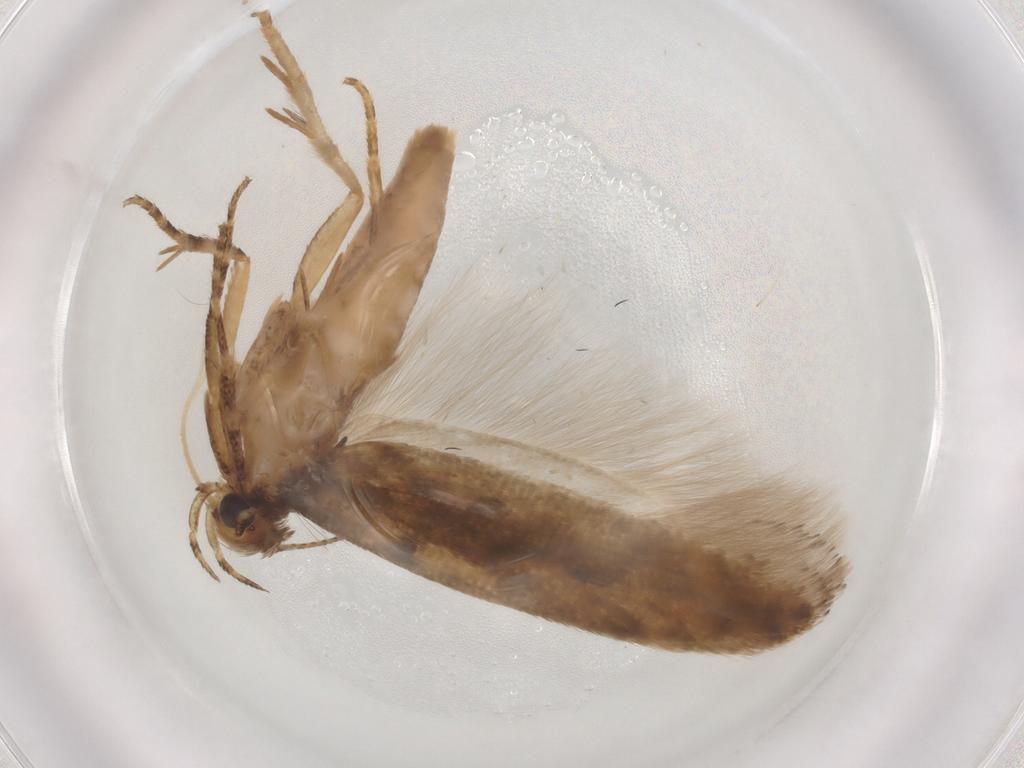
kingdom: Animalia
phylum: Arthropoda
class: Insecta
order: Lepidoptera
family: Gelechiidae
